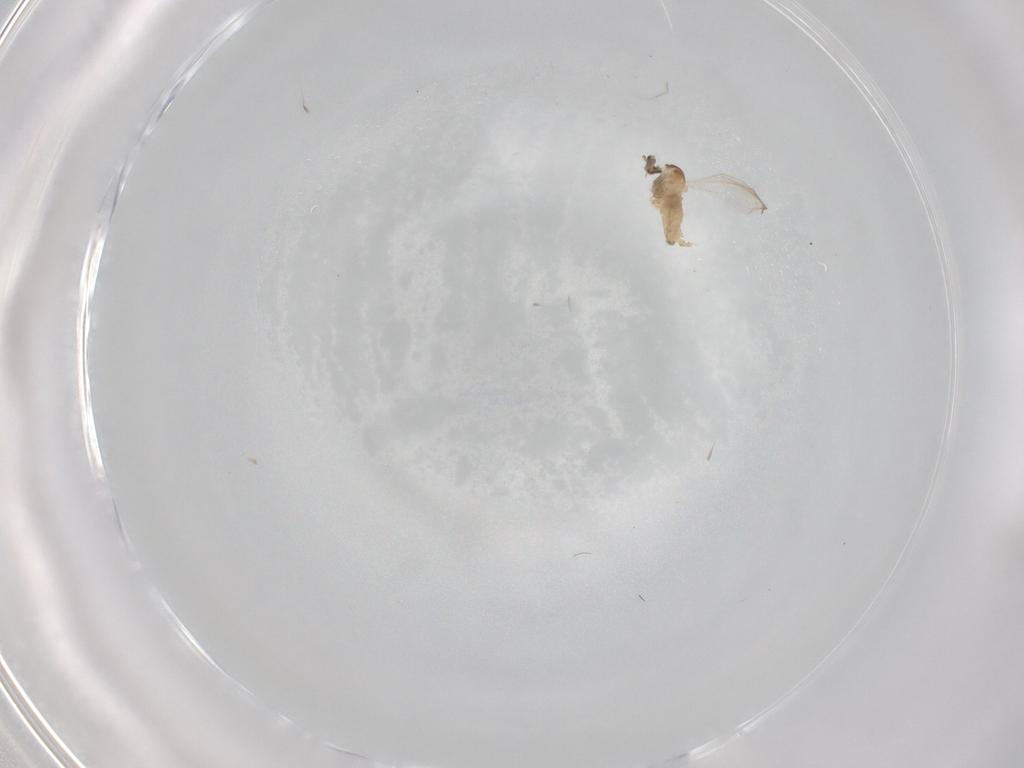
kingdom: Animalia
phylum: Arthropoda
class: Insecta
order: Diptera
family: Cecidomyiidae
